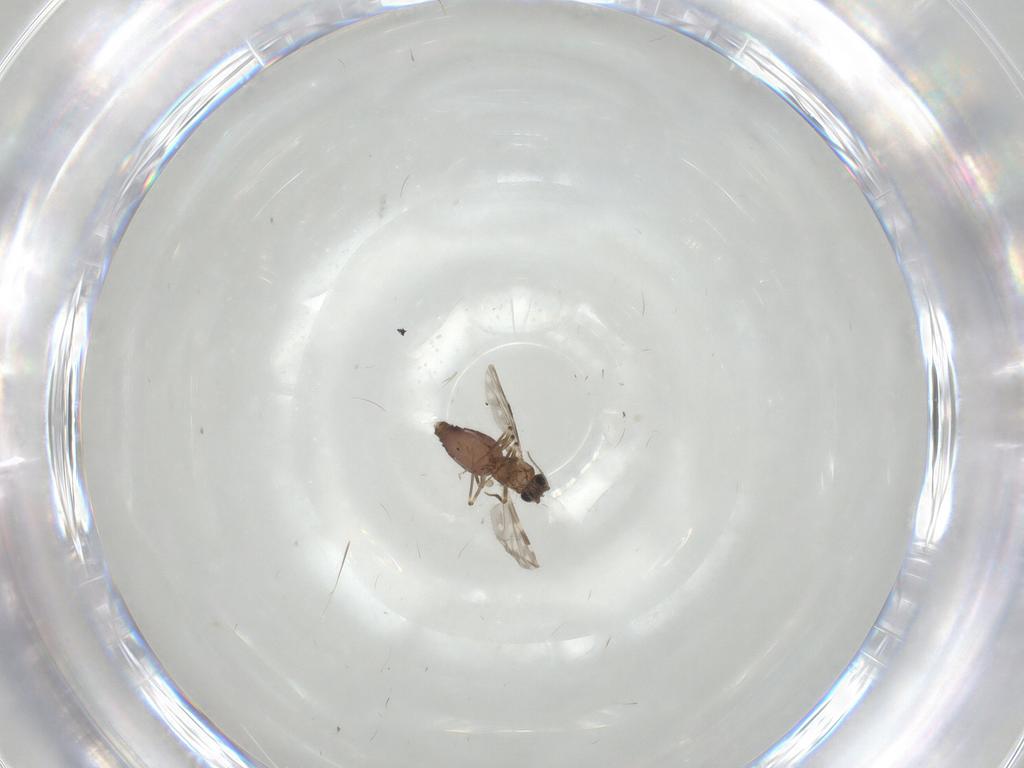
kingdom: Animalia
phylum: Arthropoda
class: Insecta
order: Diptera
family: Ceratopogonidae
